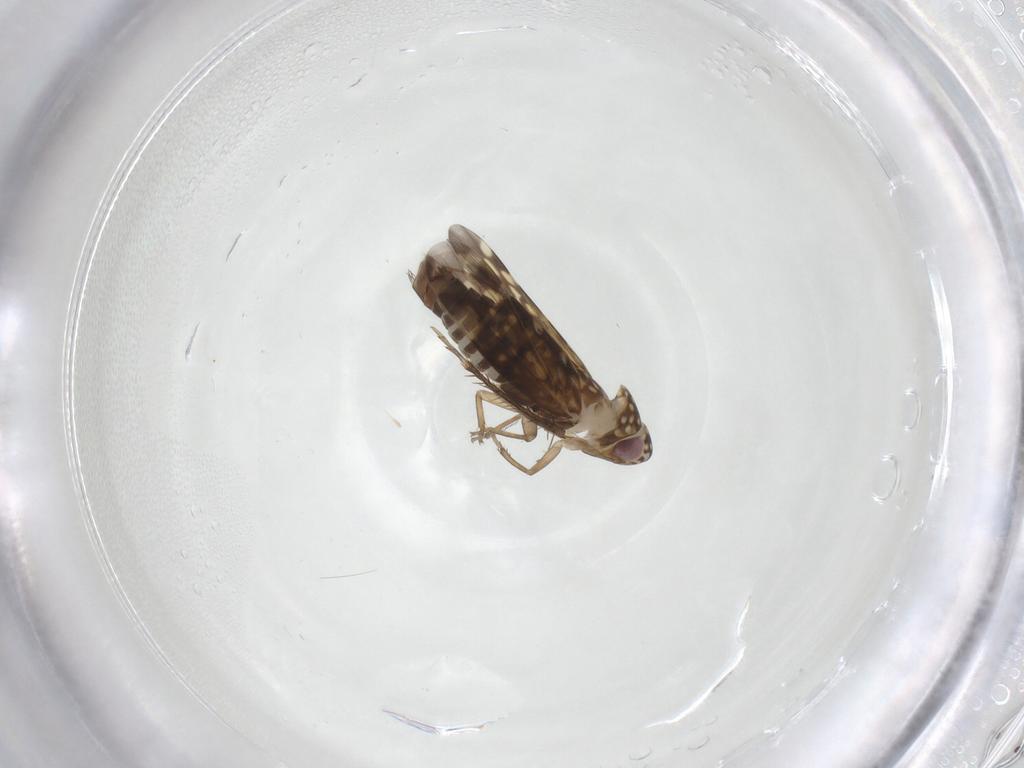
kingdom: Animalia
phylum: Arthropoda
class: Insecta
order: Hemiptera
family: Cicadellidae
